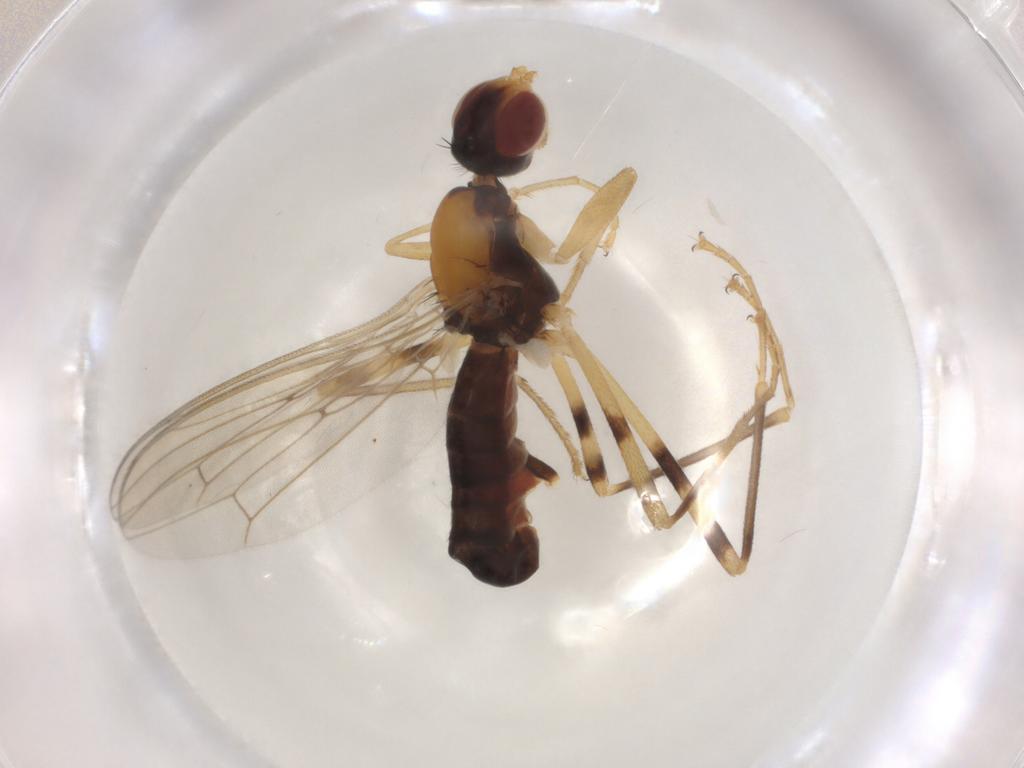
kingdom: Animalia
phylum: Arthropoda
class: Insecta
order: Diptera
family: Micropezidae
